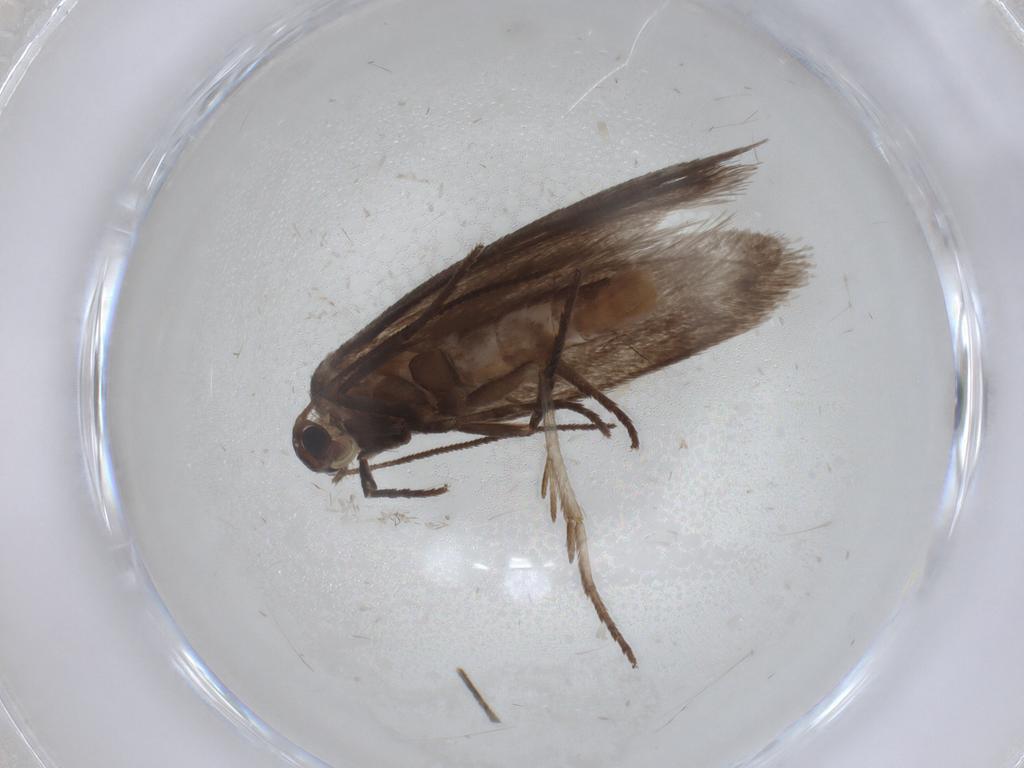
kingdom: Animalia
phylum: Arthropoda
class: Insecta
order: Lepidoptera
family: Limacodidae
